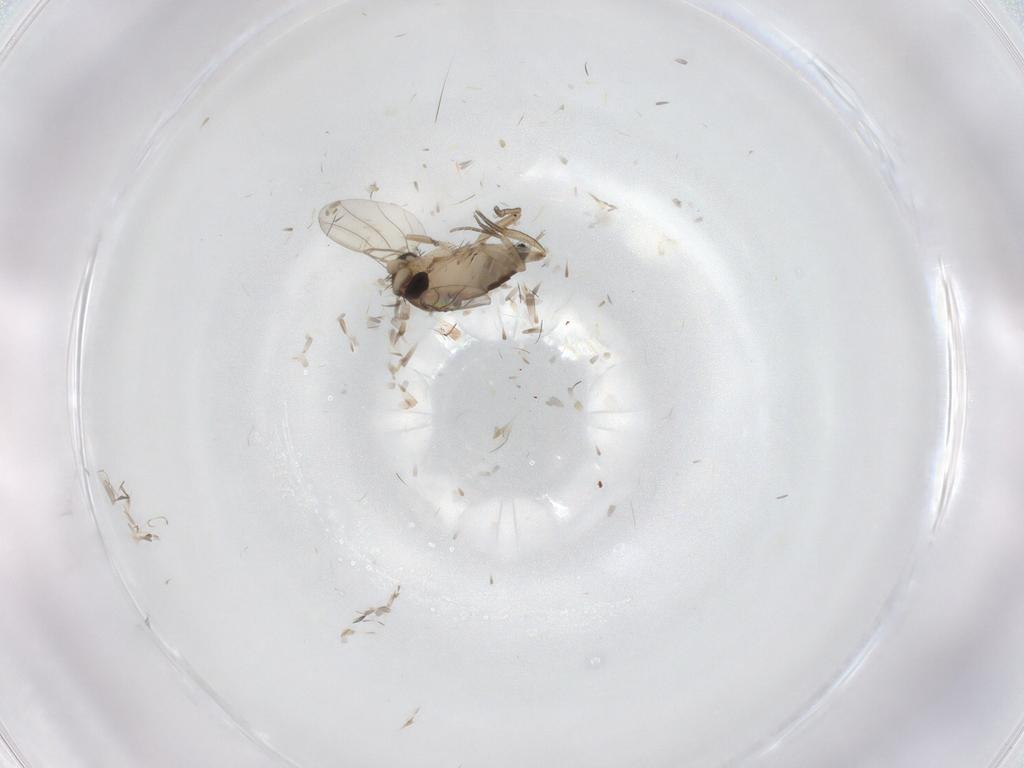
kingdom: Animalia
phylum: Arthropoda
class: Insecta
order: Diptera
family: Phoridae
